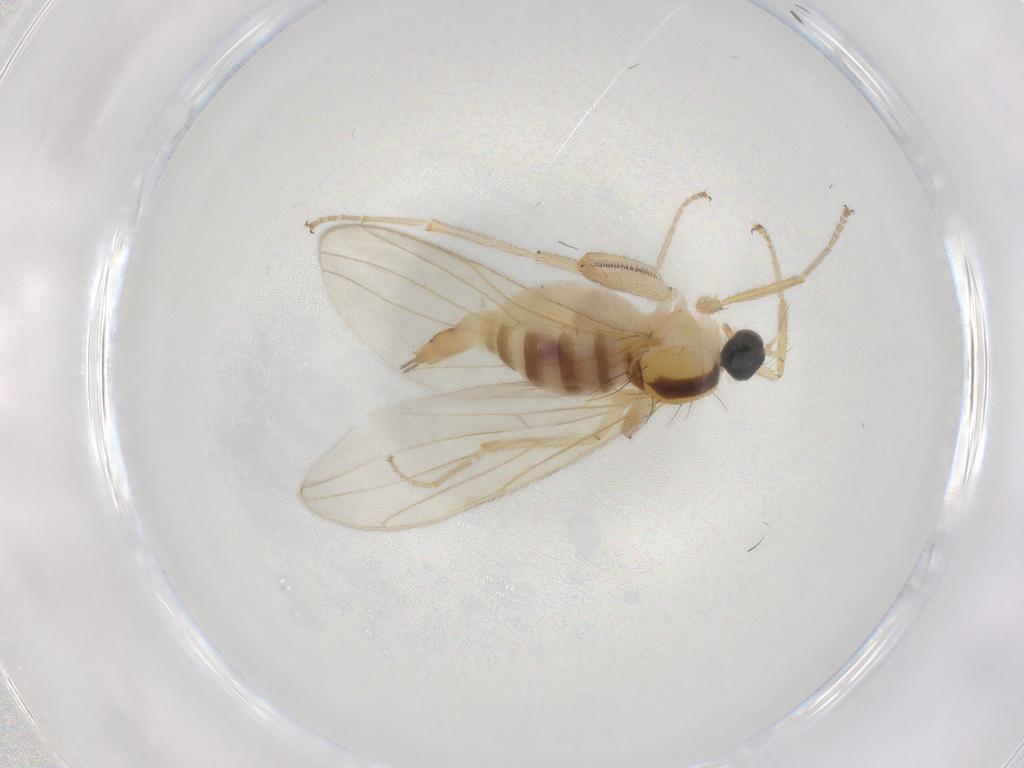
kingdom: Animalia
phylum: Arthropoda
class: Insecta
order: Diptera
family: Hybotidae
